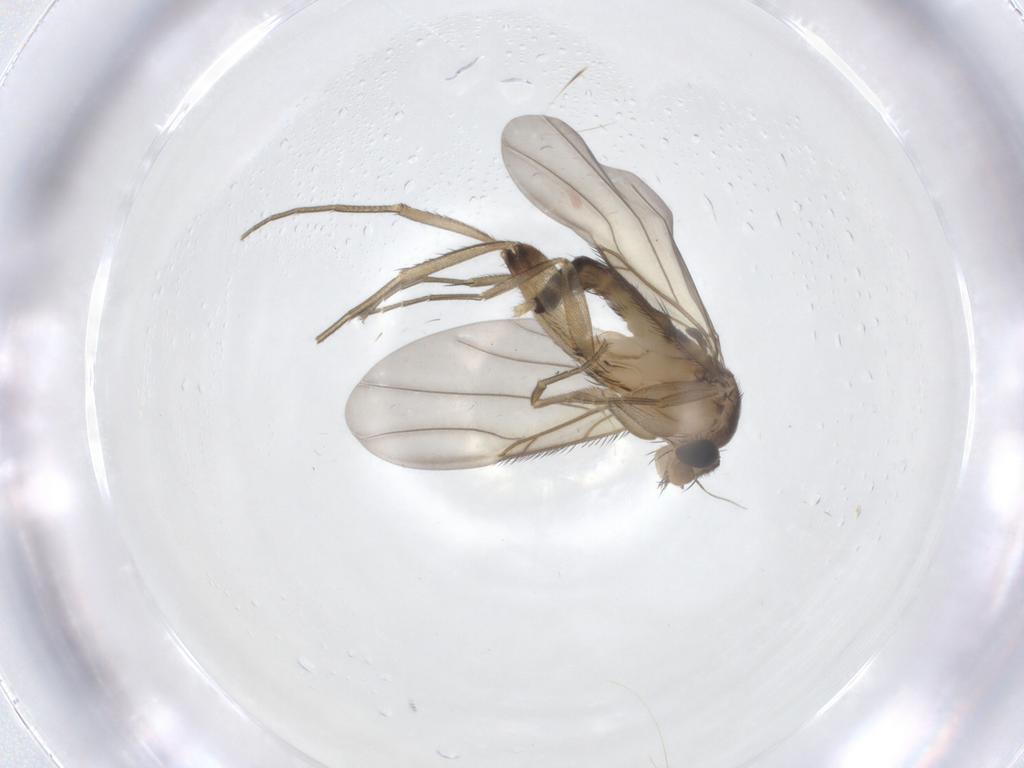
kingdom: Animalia
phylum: Arthropoda
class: Insecta
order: Diptera
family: Phoridae
